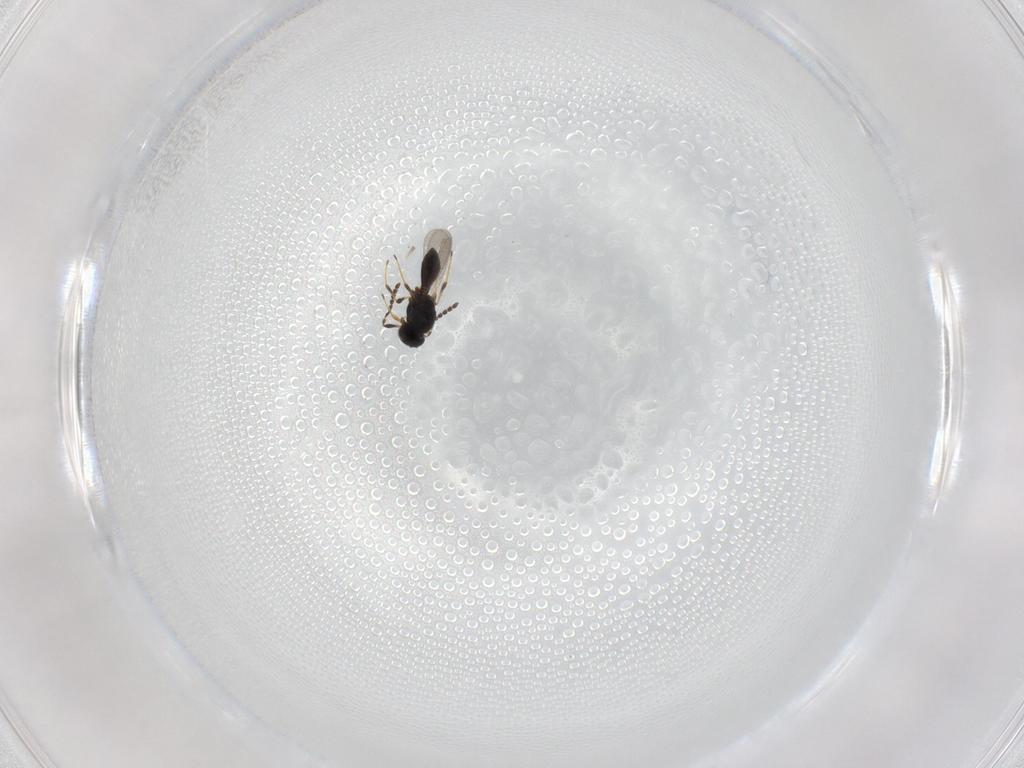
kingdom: Animalia
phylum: Arthropoda
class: Insecta
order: Hymenoptera
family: Platygastridae
